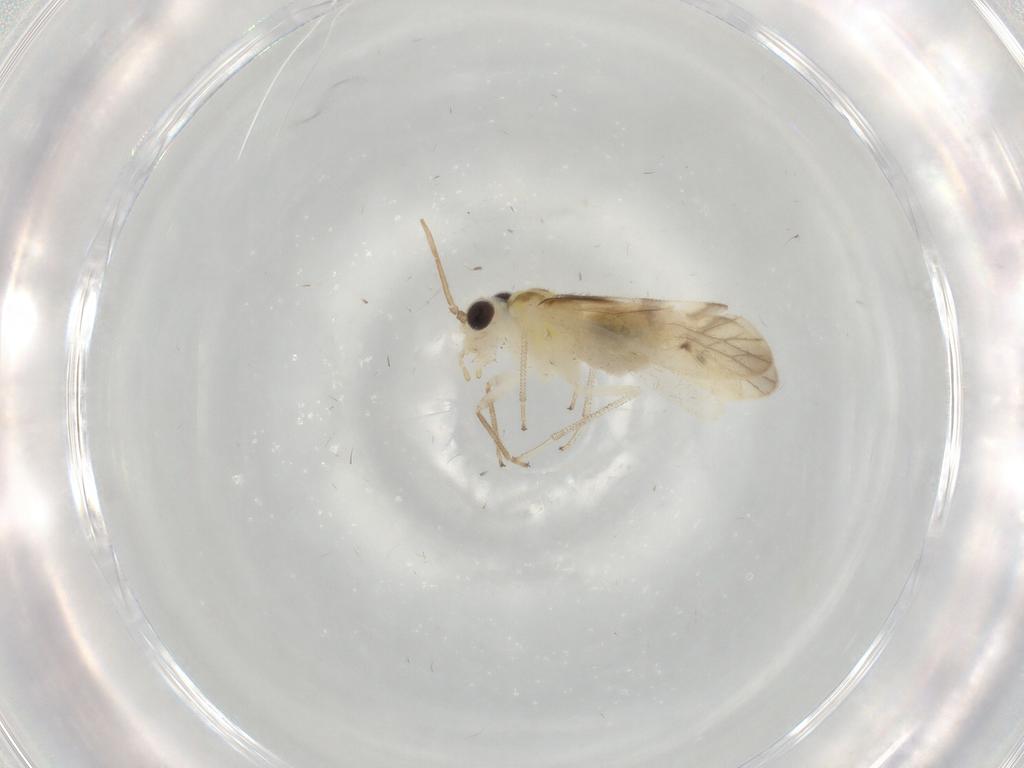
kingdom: Animalia
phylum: Arthropoda
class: Insecta
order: Psocodea
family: Caeciliusidae
